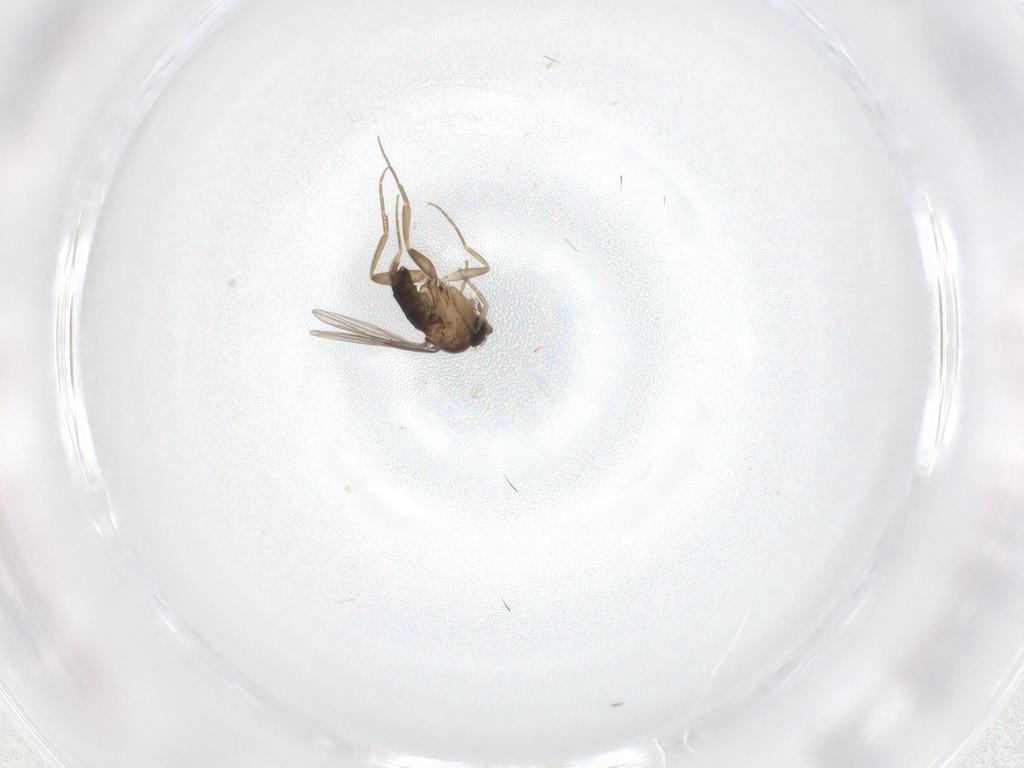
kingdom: Animalia
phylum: Arthropoda
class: Insecta
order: Diptera
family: Phoridae
